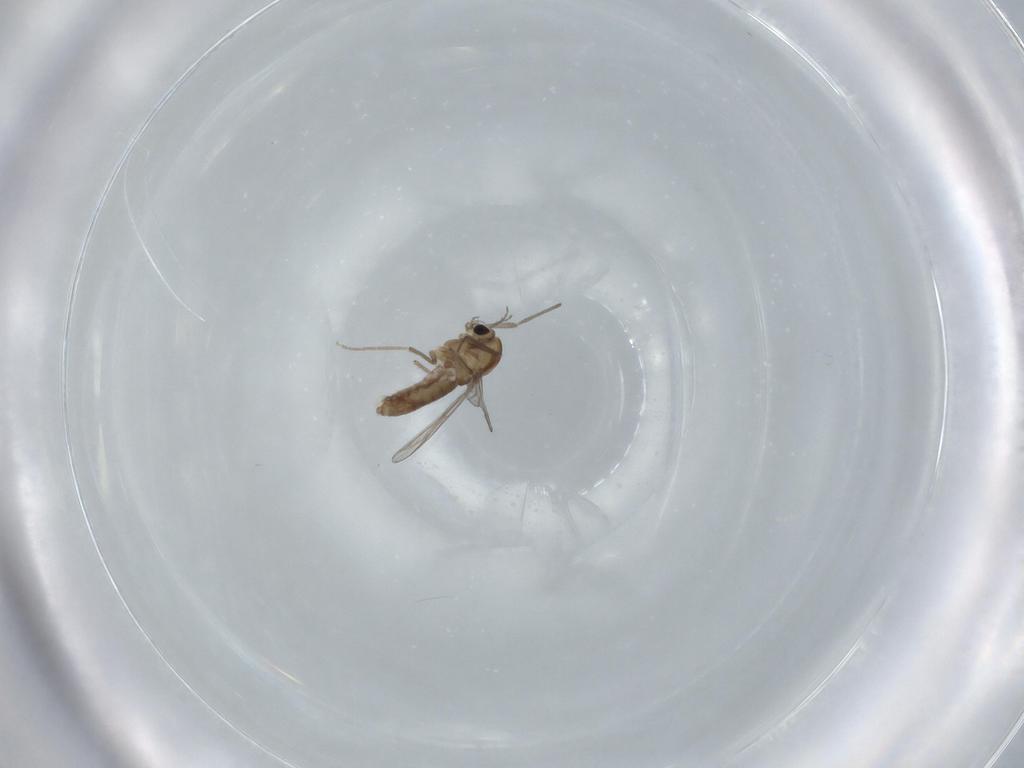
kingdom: Animalia
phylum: Arthropoda
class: Insecta
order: Diptera
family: Chironomidae
